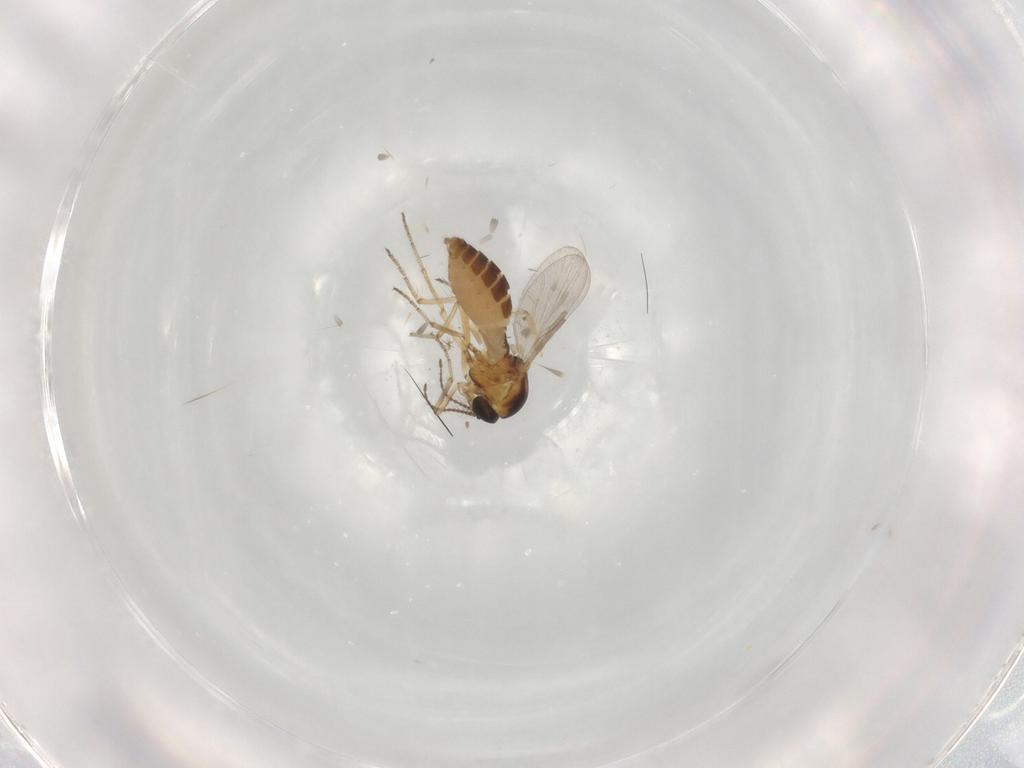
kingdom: Animalia
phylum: Arthropoda
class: Insecta
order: Diptera
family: Ceratopogonidae
